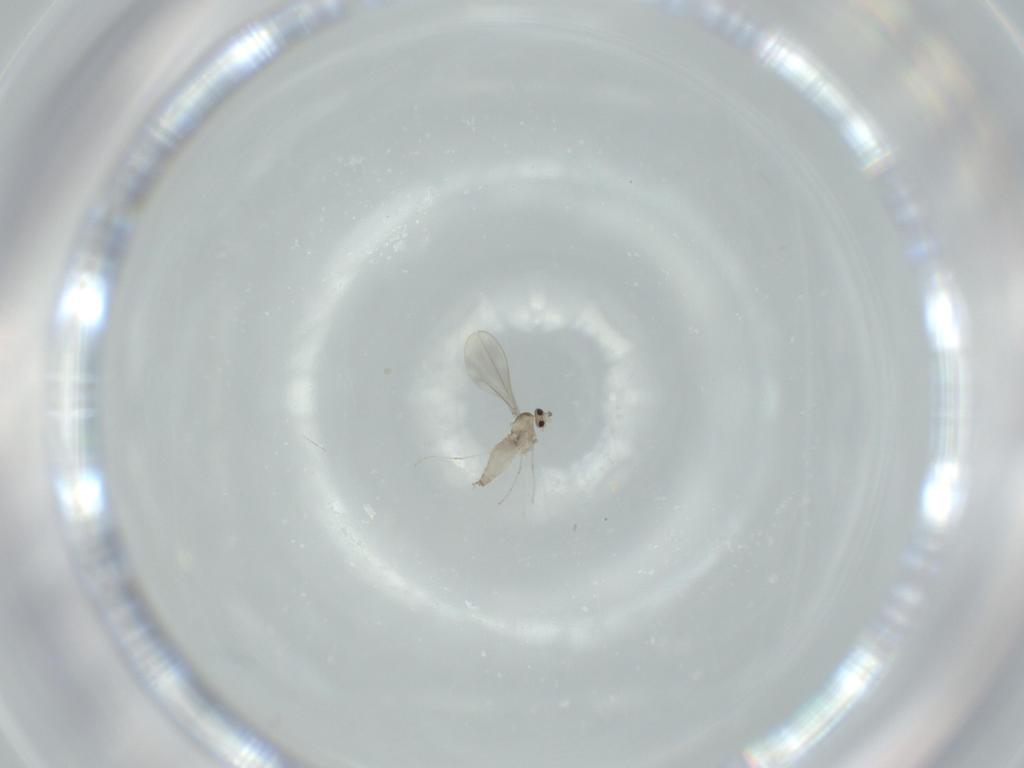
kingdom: Animalia
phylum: Arthropoda
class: Insecta
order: Diptera
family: Cecidomyiidae
